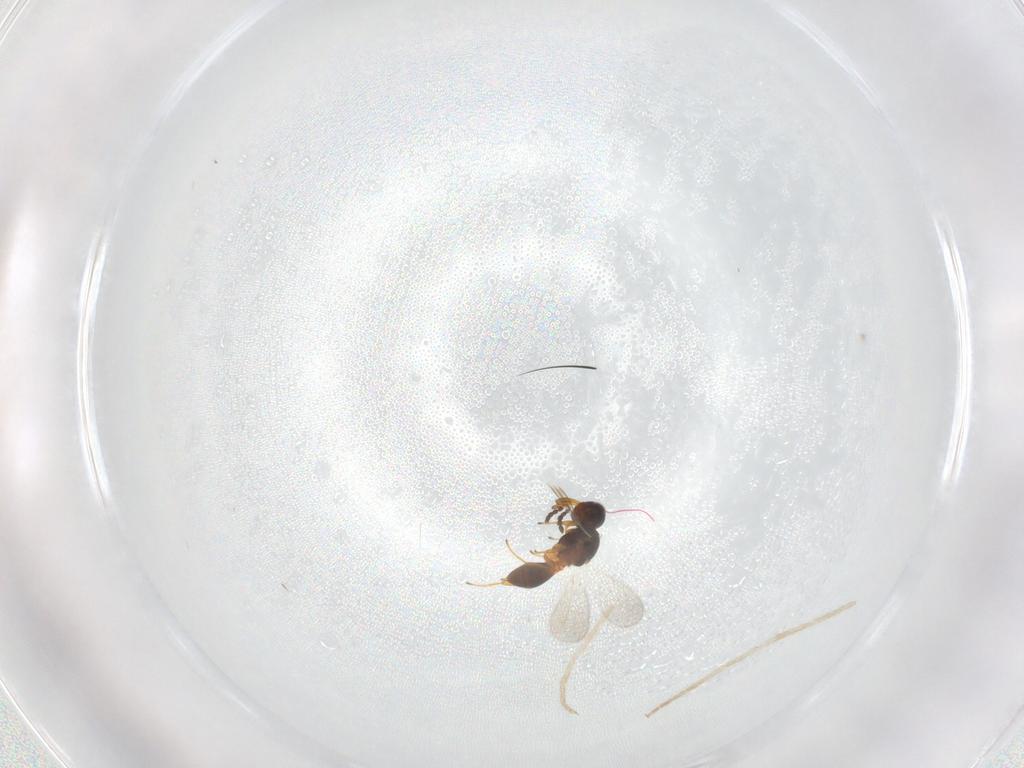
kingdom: Animalia
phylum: Arthropoda
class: Insecta
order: Hymenoptera
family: Platygastridae
